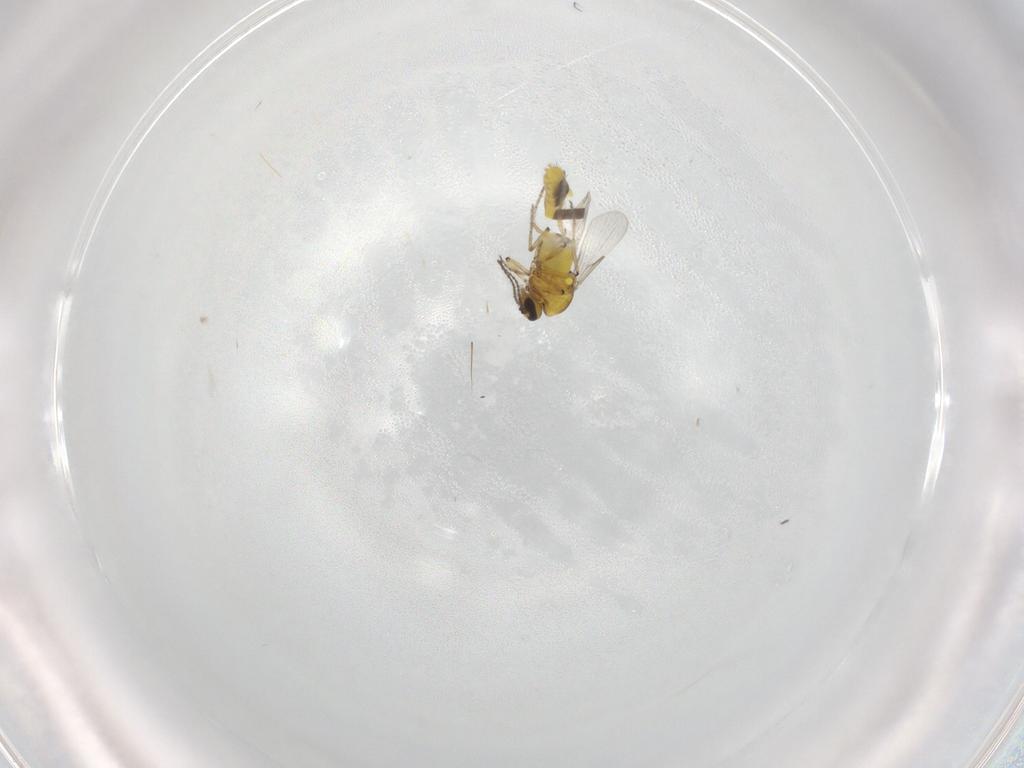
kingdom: Animalia
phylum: Arthropoda
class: Insecta
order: Diptera
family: Ceratopogonidae
